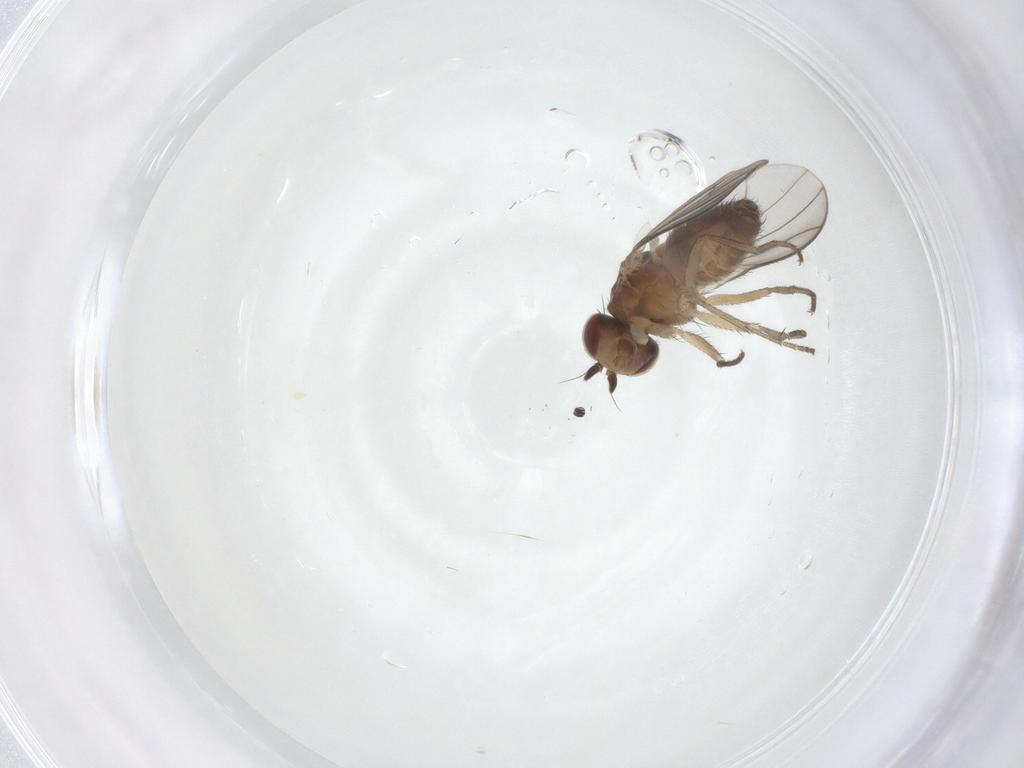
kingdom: Animalia
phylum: Arthropoda
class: Insecta
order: Diptera
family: Heleomyzidae
